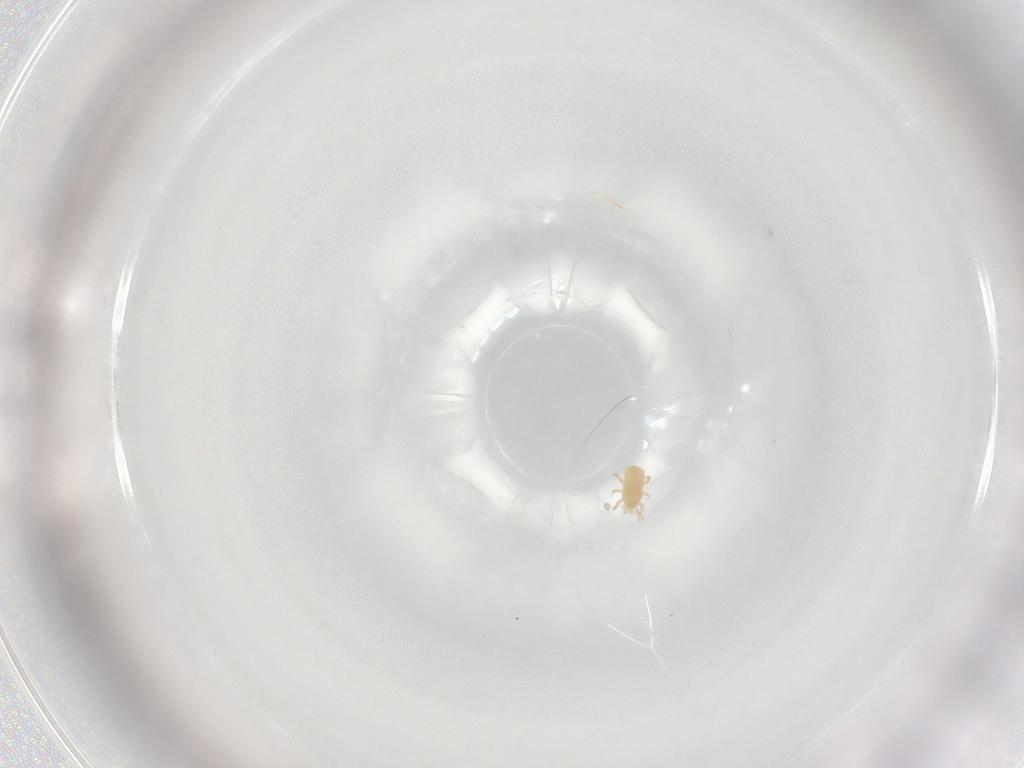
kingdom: Animalia
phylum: Arthropoda
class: Arachnida
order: Mesostigmata
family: Ascidae
